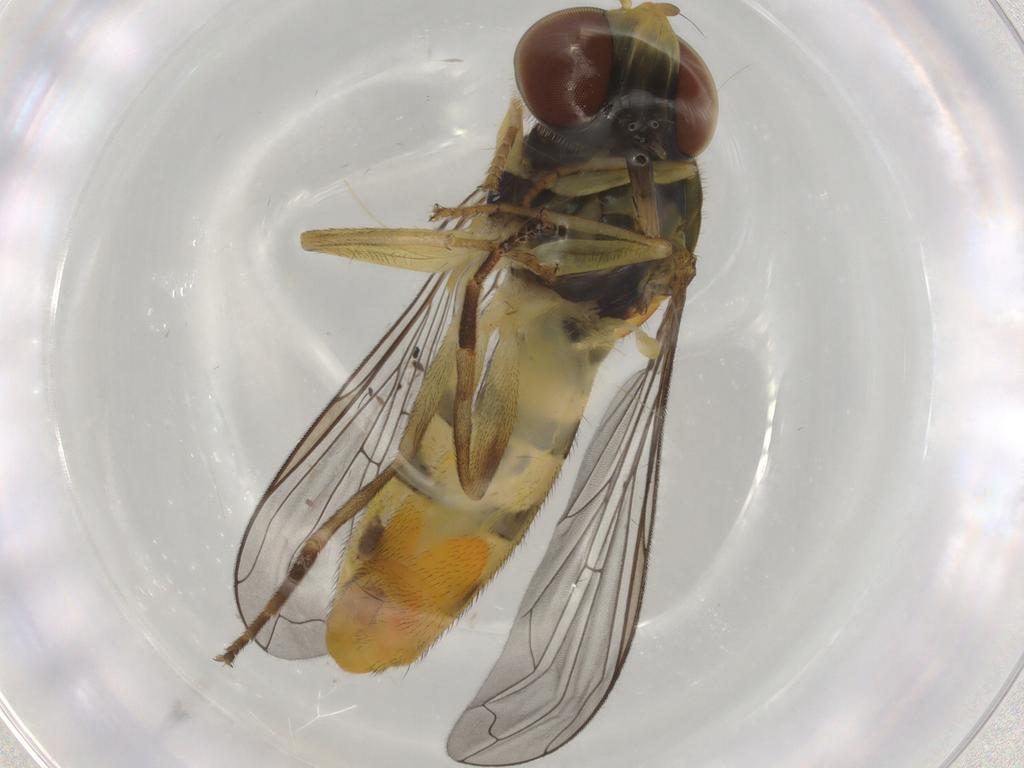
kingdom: Animalia
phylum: Arthropoda
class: Insecta
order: Diptera
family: Syrphidae
